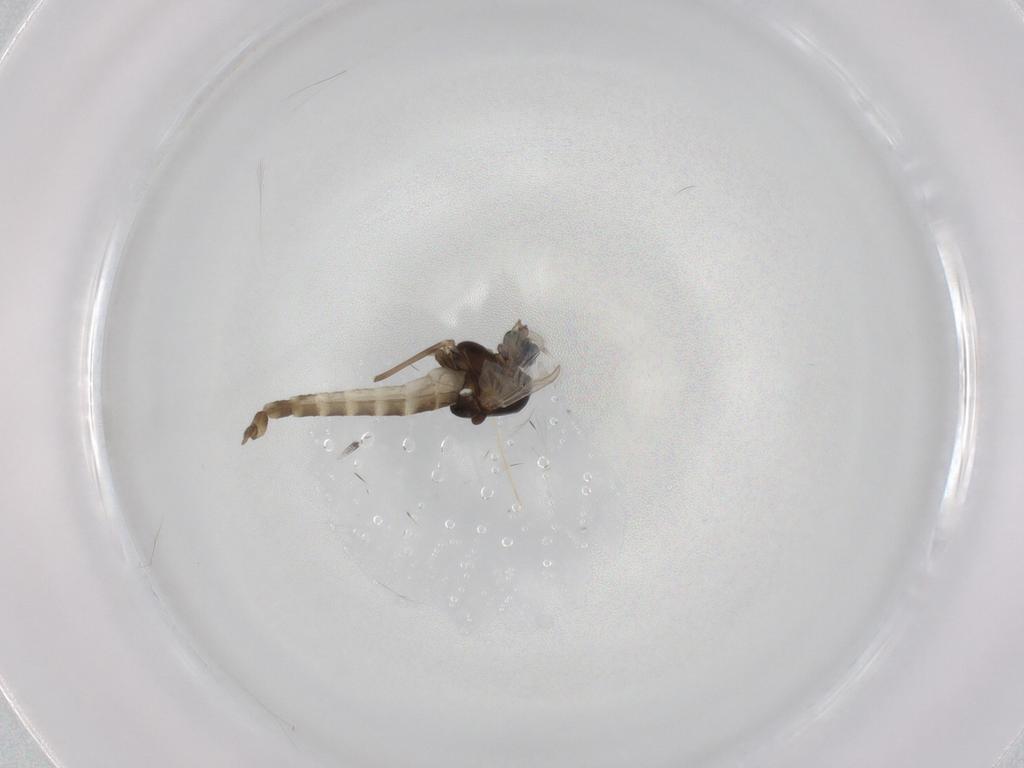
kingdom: Animalia
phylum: Arthropoda
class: Insecta
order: Diptera
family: Chironomidae
